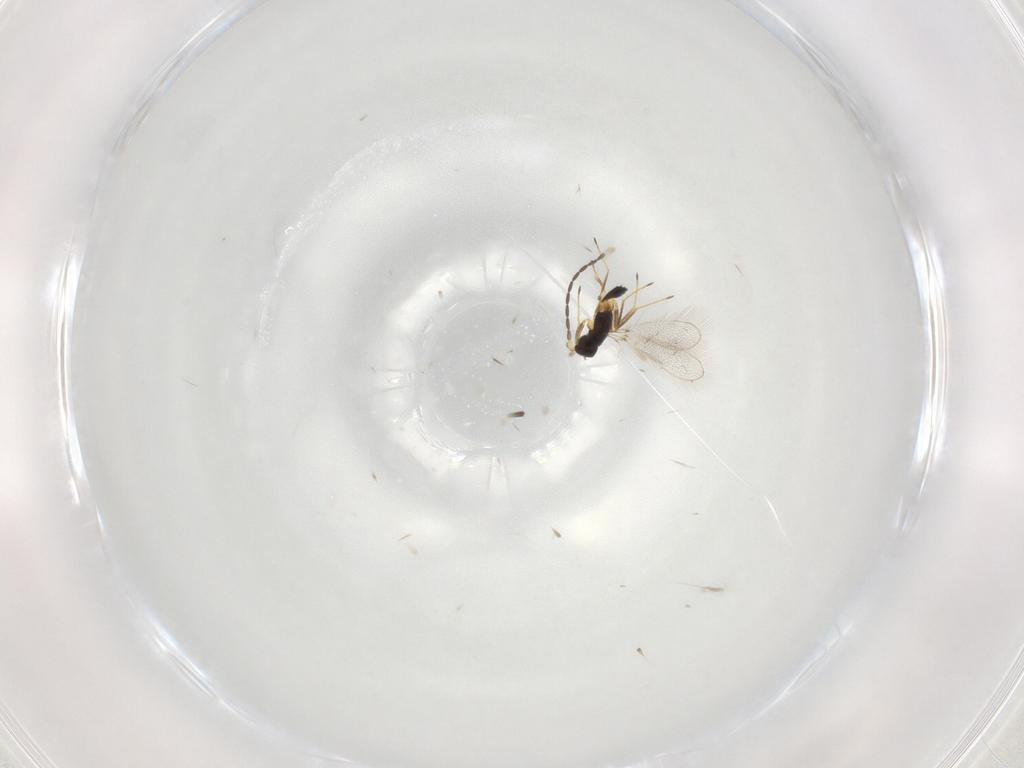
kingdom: Animalia
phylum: Arthropoda
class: Insecta
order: Hymenoptera
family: Mymaridae
